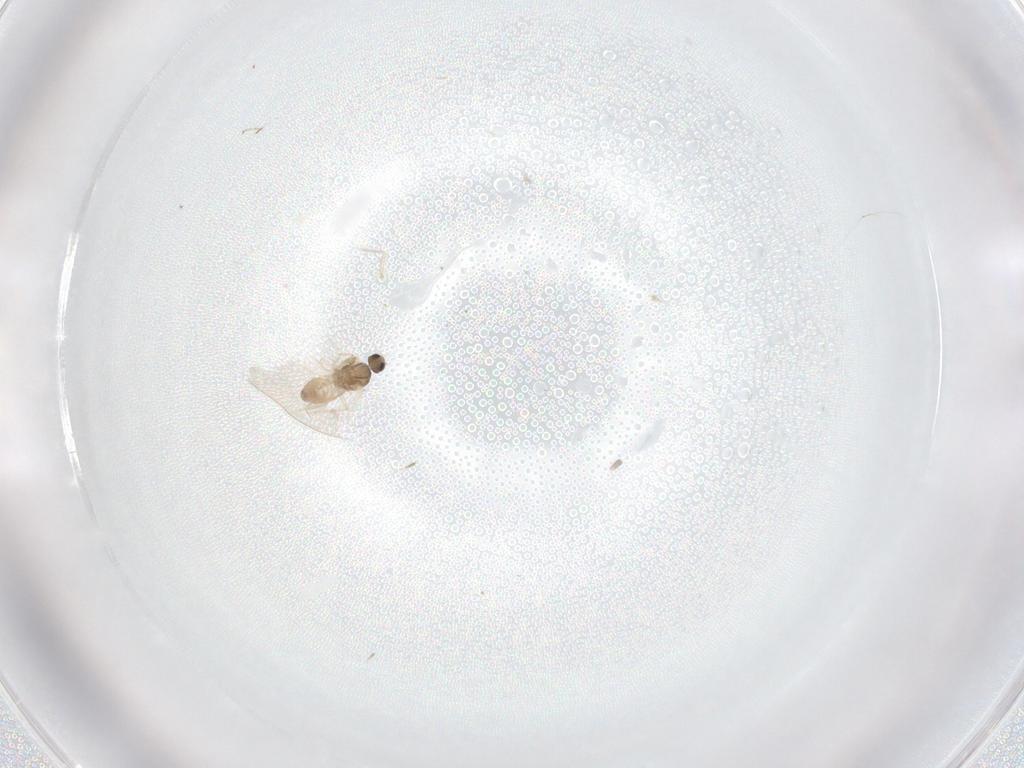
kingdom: Animalia
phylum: Arthropoda
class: Insecta
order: Diptera
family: Cecidomyiidae
